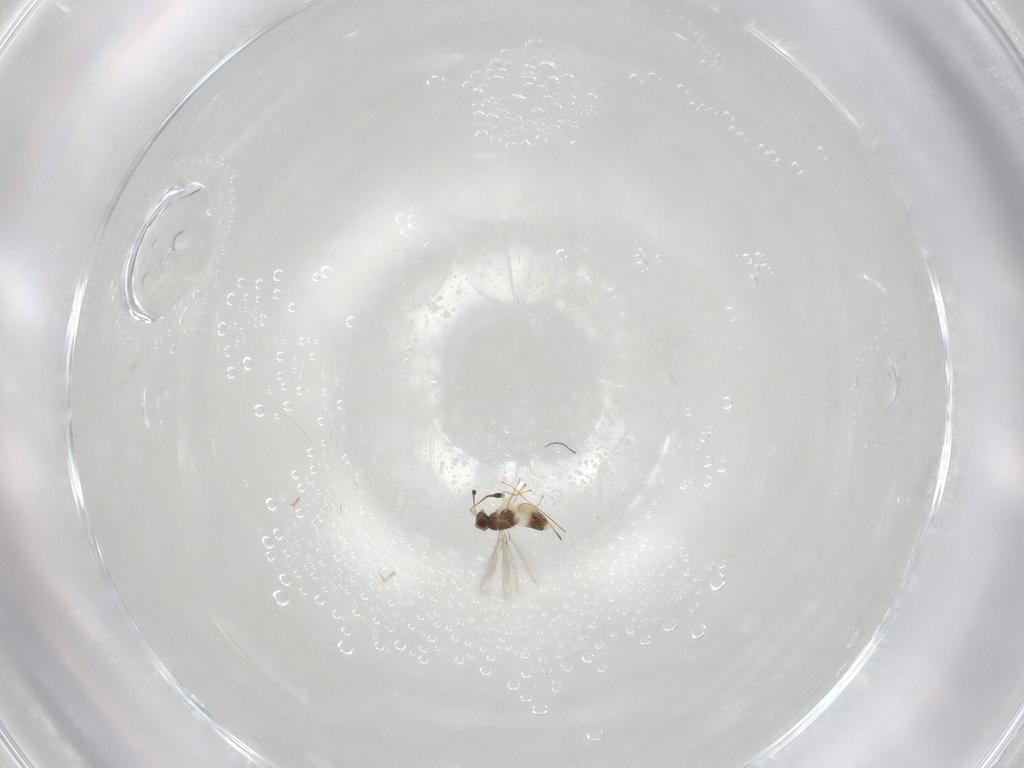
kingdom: Animalia
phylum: Arthropoda
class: Insecta
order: Hymenoptera
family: Mymaridae
